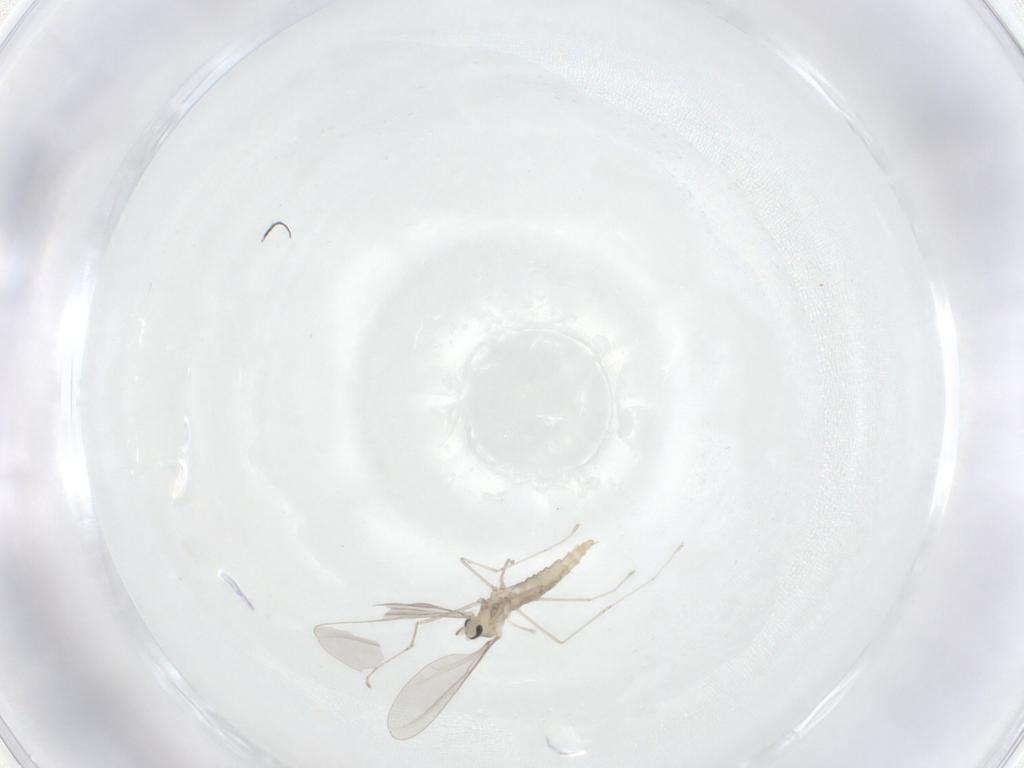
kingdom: Animalia
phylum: Arthropoda
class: Insecta
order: Diptera
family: Cecidomyiidae
